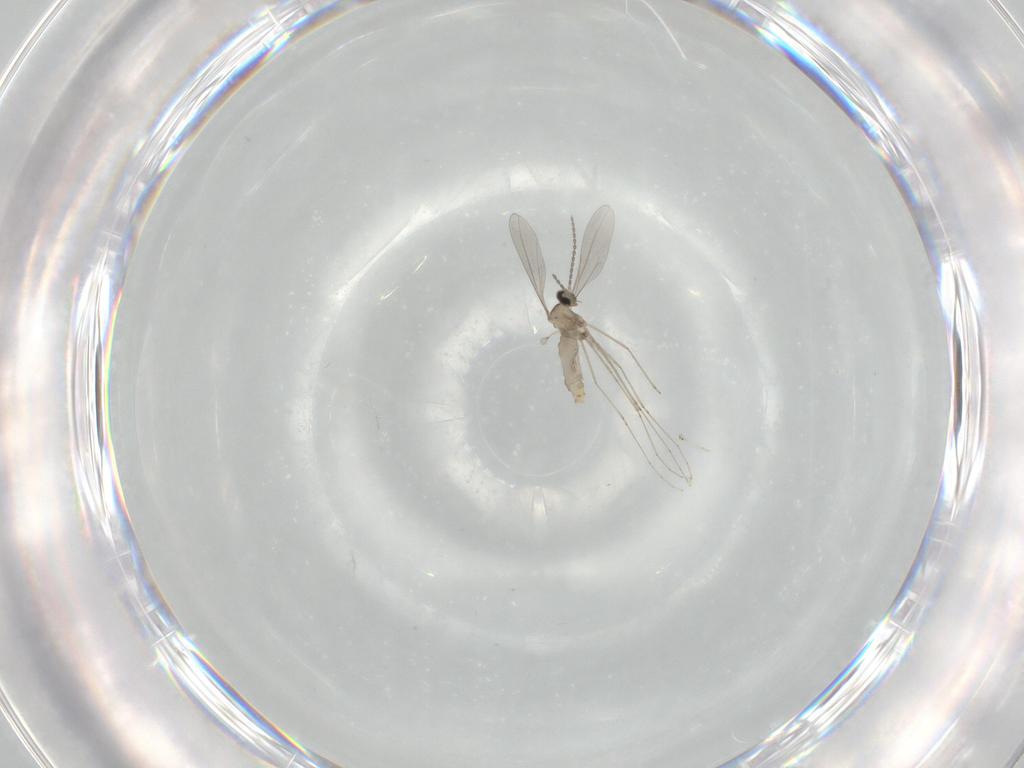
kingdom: Animalia
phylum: Arthropoda
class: Insecta
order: Diptera
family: Cecidomyiidae
